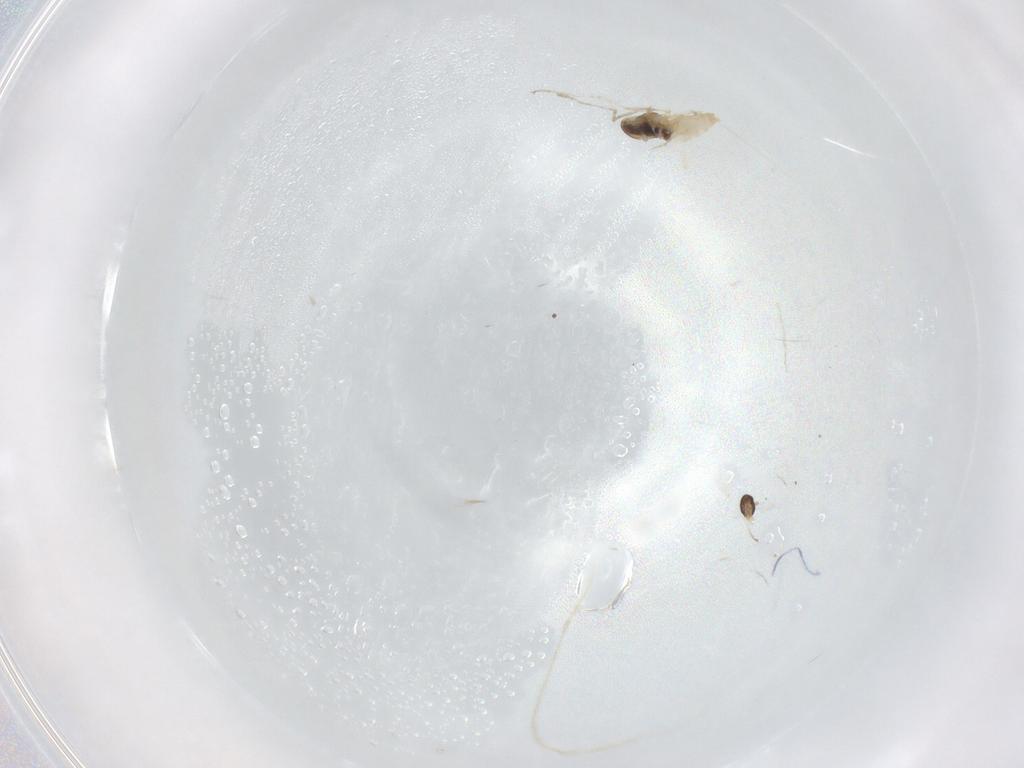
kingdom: Animalia
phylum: Arthropoda
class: Insecta
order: Diptera
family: Cecidomyiidae
